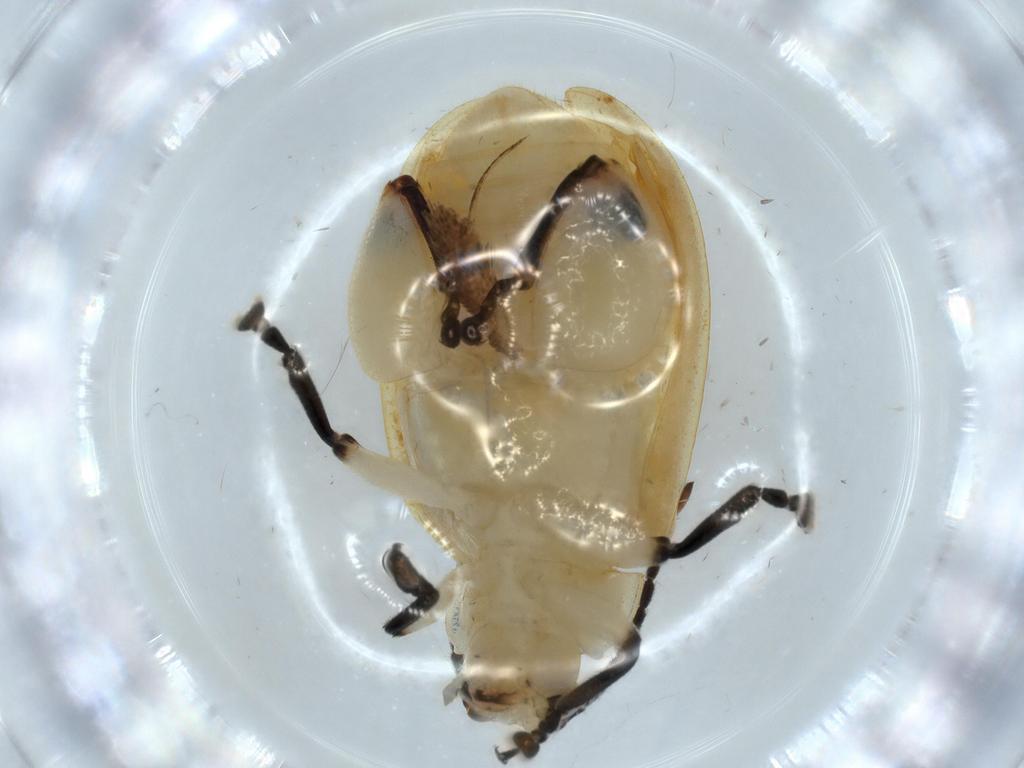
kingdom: Animalia
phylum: Arthropoda
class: Insecta
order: Coleoptera
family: Chrysomelidae
